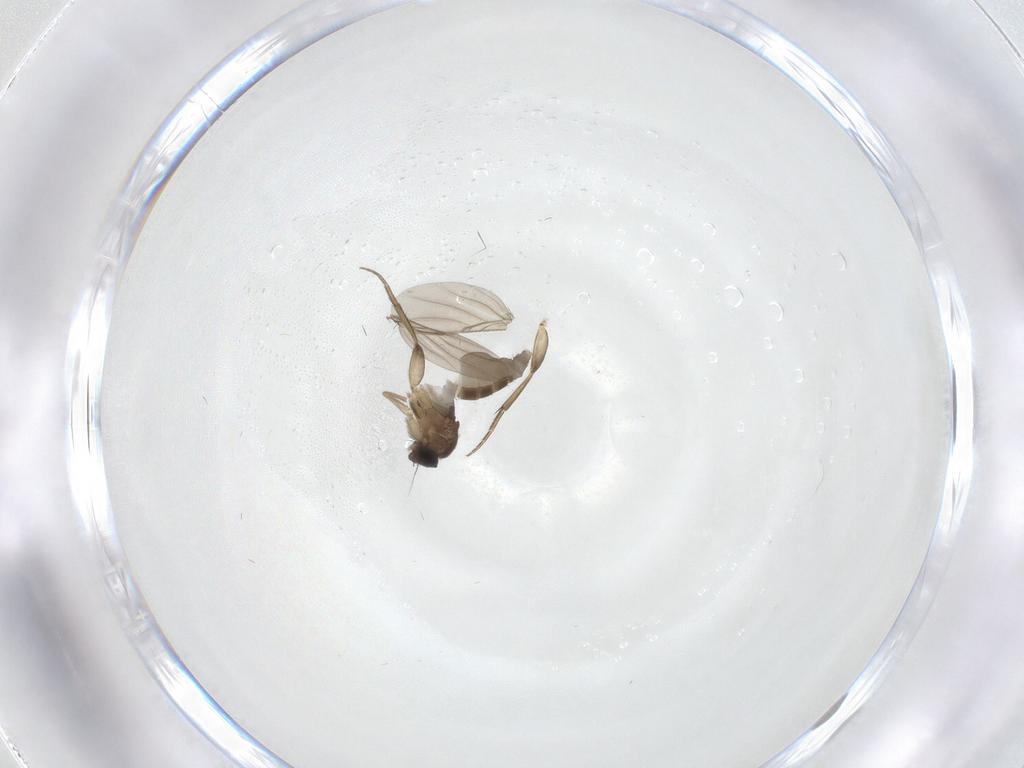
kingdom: Animalia
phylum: Arthropoda
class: Insecta
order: Diptera
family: Phoridae
